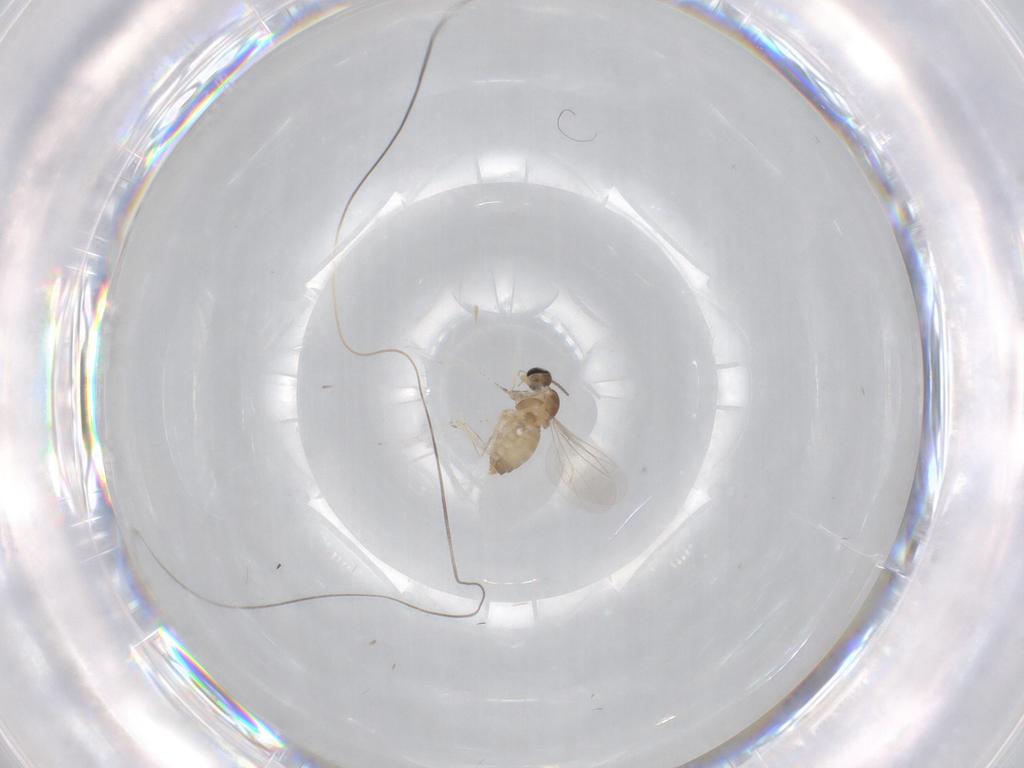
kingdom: Animalia
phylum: Arthropoda
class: Insecta
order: Diptera
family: Cecidomyiidae
